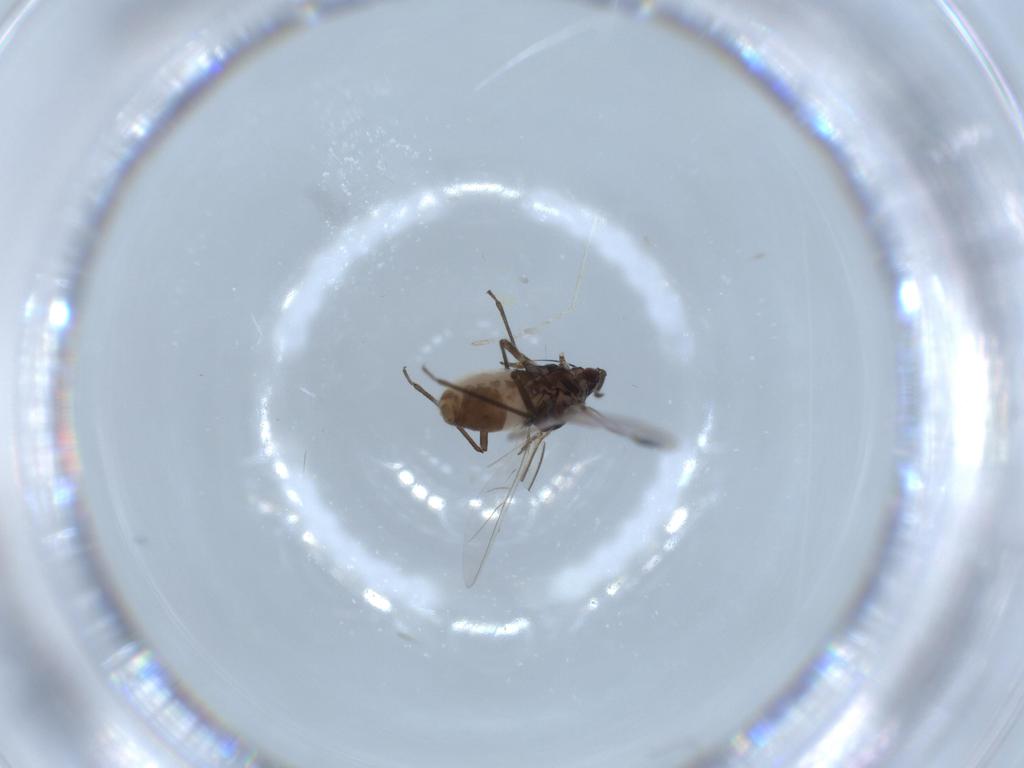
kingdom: Animalia
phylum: Arthropoda
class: Insecta
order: Hemiptera
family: Aphididae
